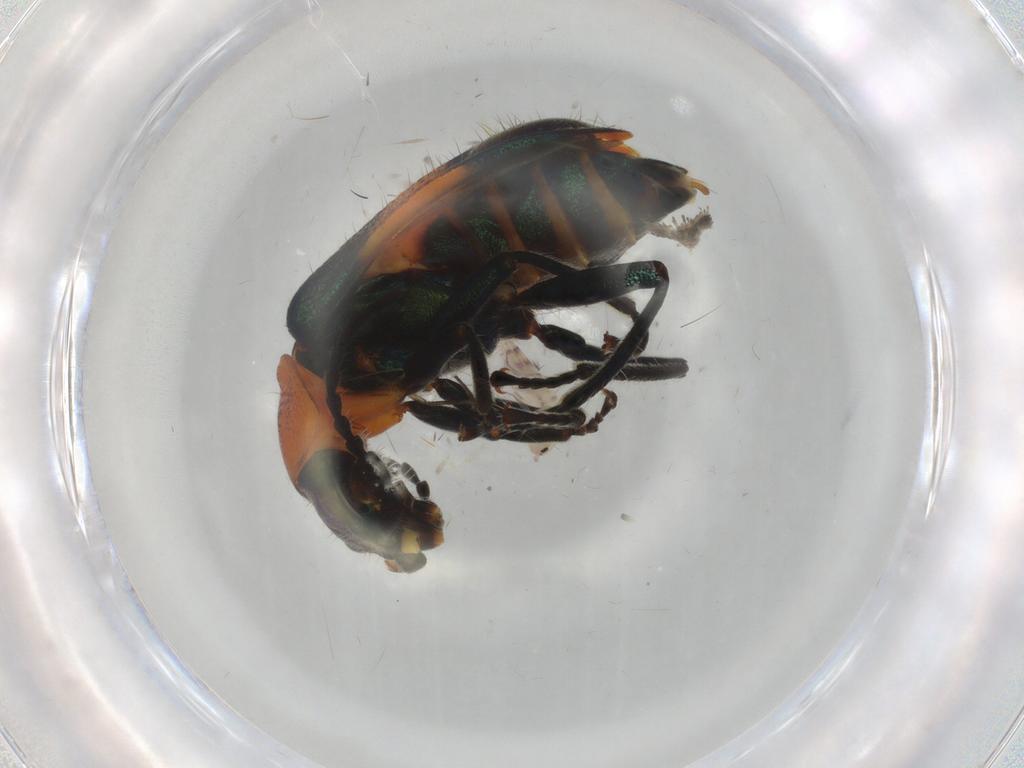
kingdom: Animalia
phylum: Arthropoda
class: Insecta
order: Coleoptera
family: Melyridae
